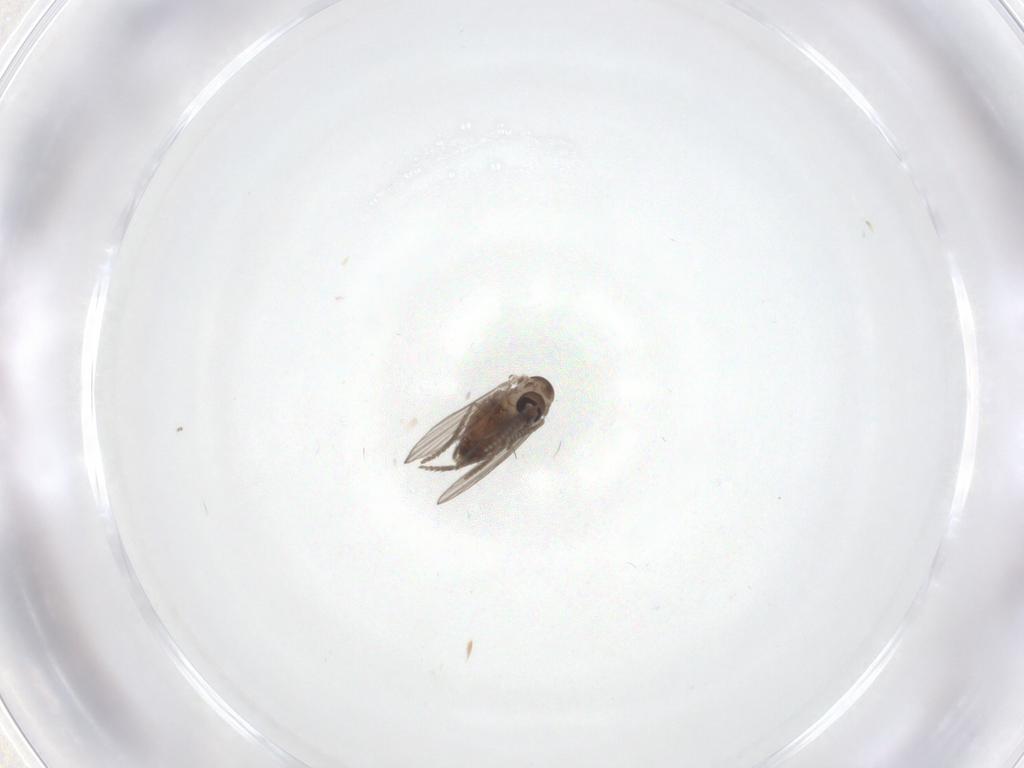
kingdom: Animalia
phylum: Arthropoda
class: Insecta
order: Diptera
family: Psychodidae
